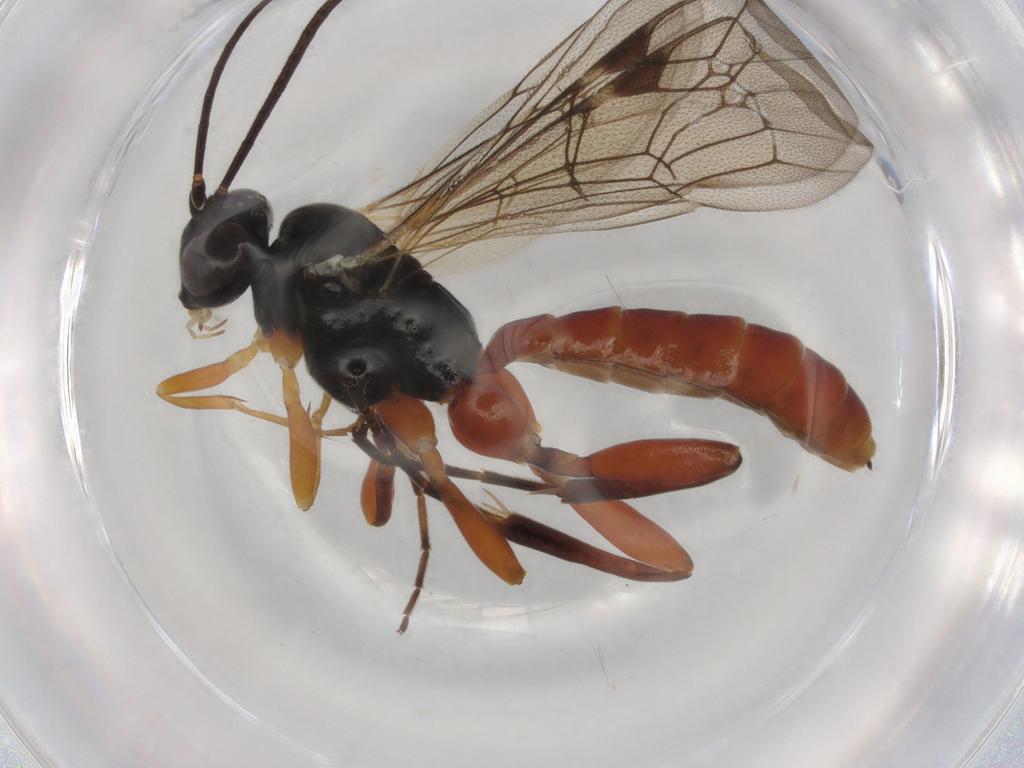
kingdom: Animalia
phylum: Arthropoda
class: Insecta
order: Hymenoptera
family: Ichneumonidae
